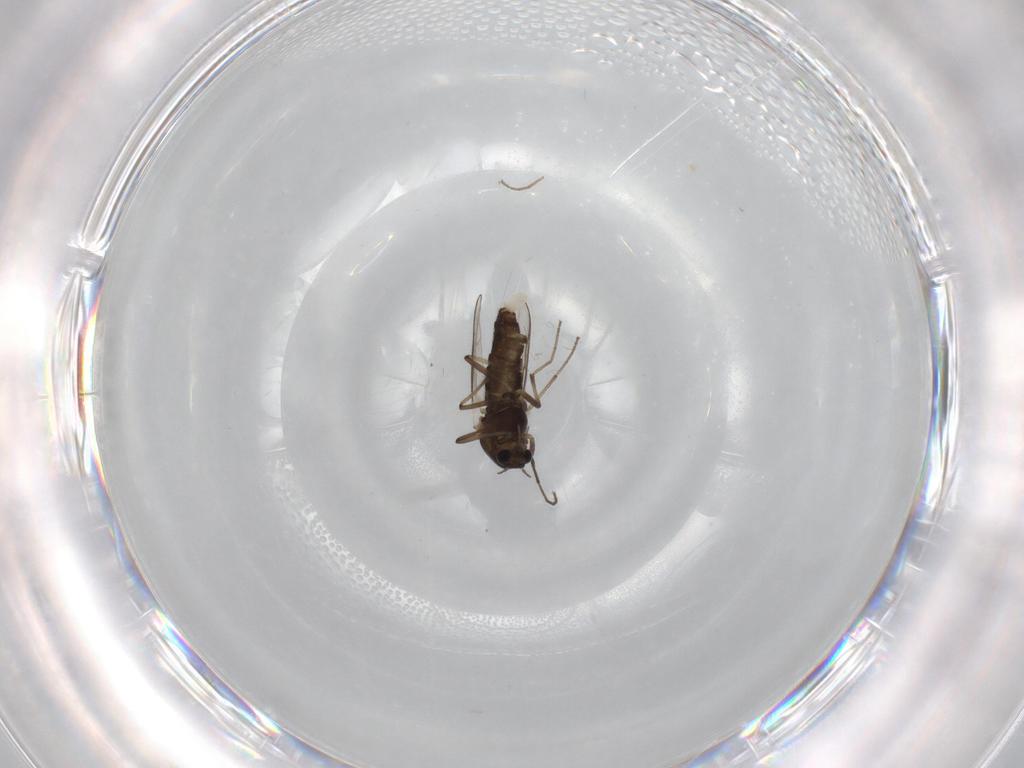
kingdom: Animalia
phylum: Arthropoda
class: Insecta
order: Diptera
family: Chironomidae
